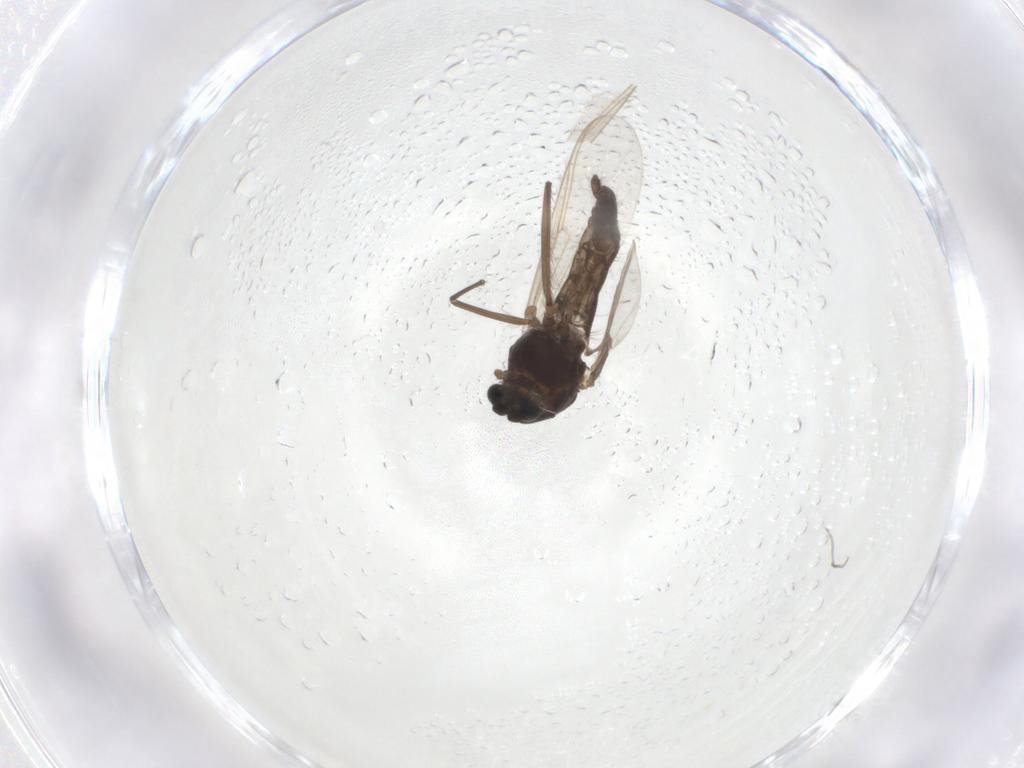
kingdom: Animalia
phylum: Arthropoda
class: Insecta
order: Diptera
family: Chironomidae
